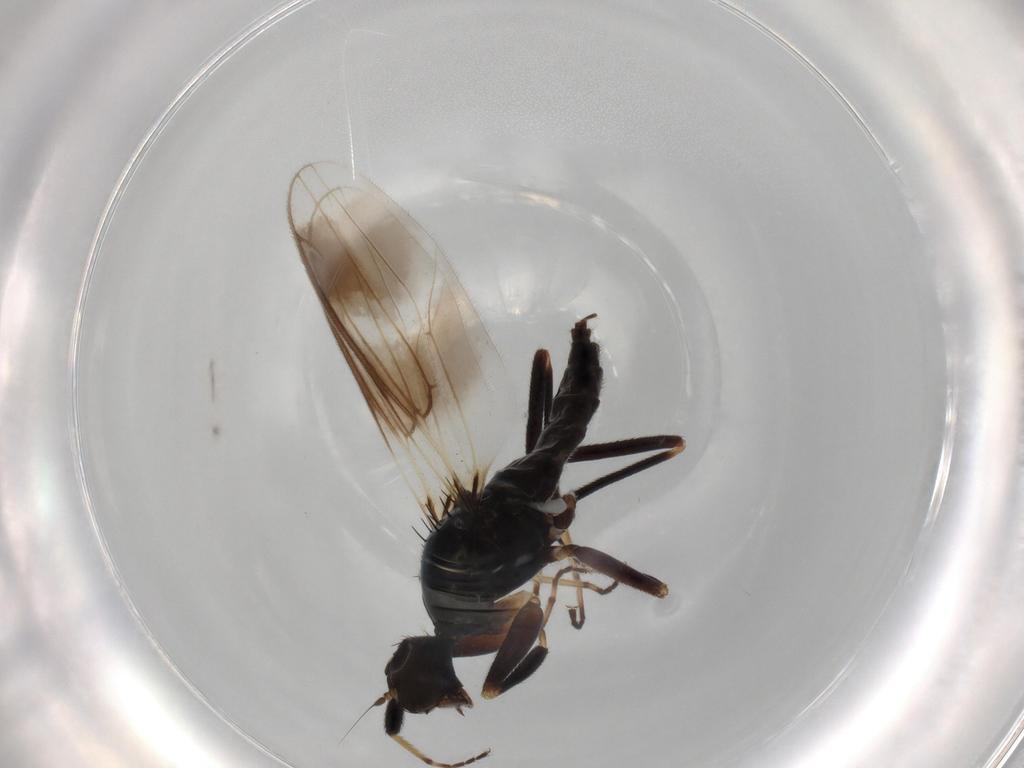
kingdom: Animalia
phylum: Arthropoda
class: Insecta
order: Diptera
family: Hybotidae
